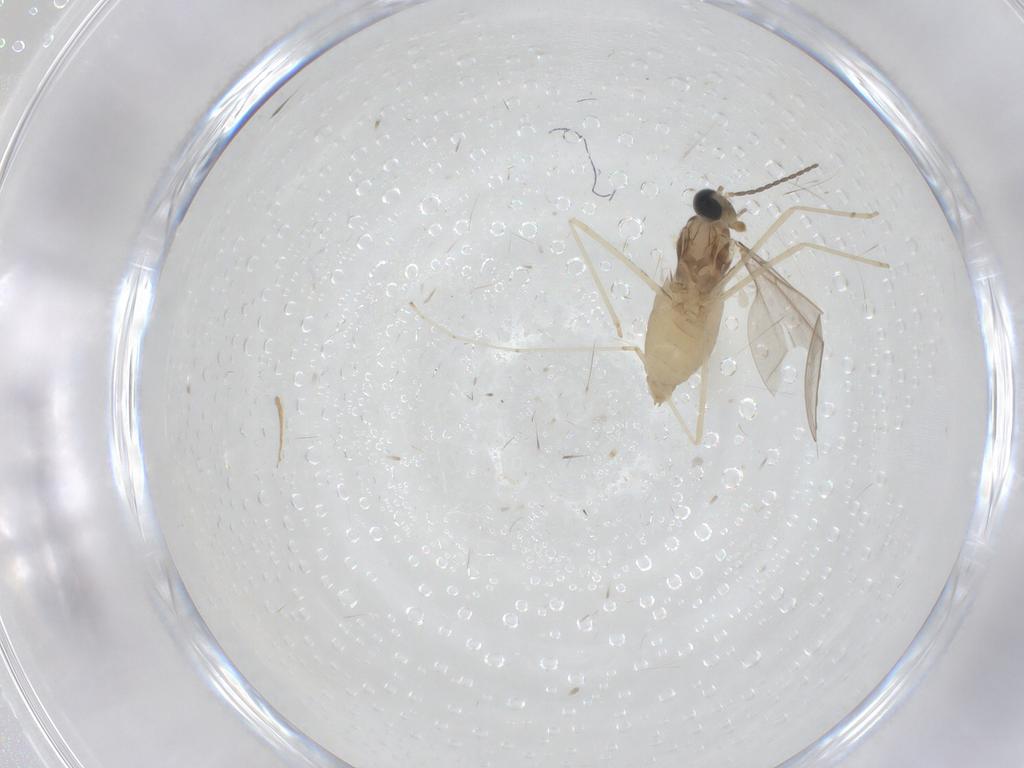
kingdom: Animalia
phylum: Arthropoda
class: Insecta
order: Diptera
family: Cecidomyiidae
